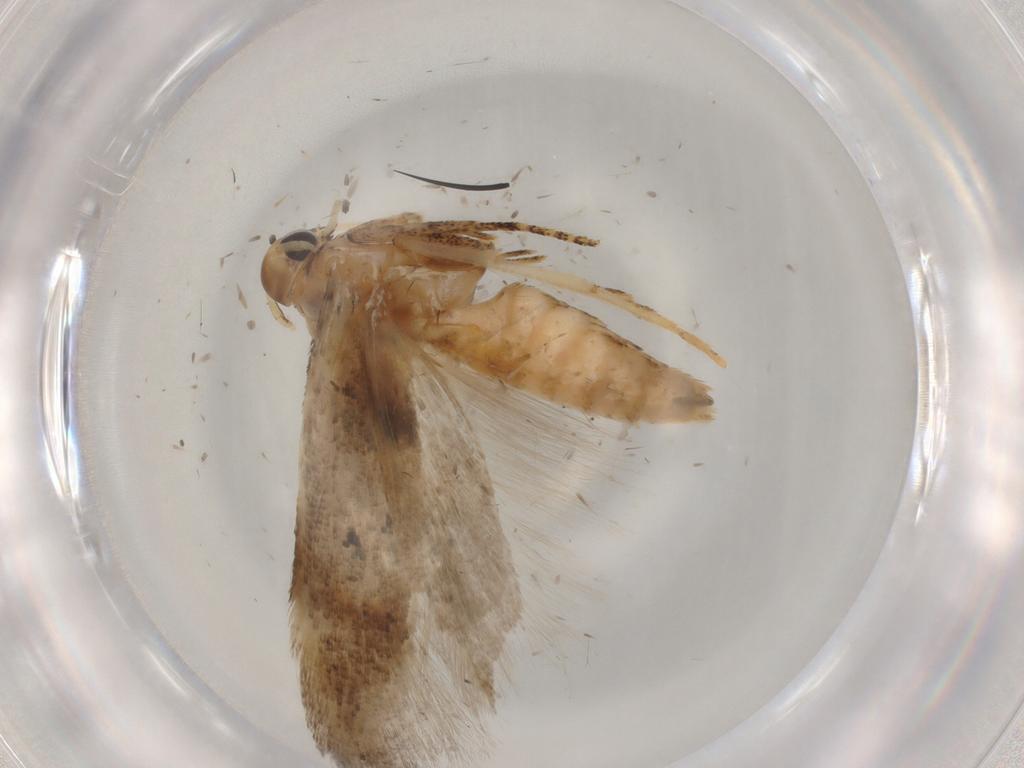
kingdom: Animalia
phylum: Arthropoda
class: Insecta
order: Lepidoptera
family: Gelechiidae
